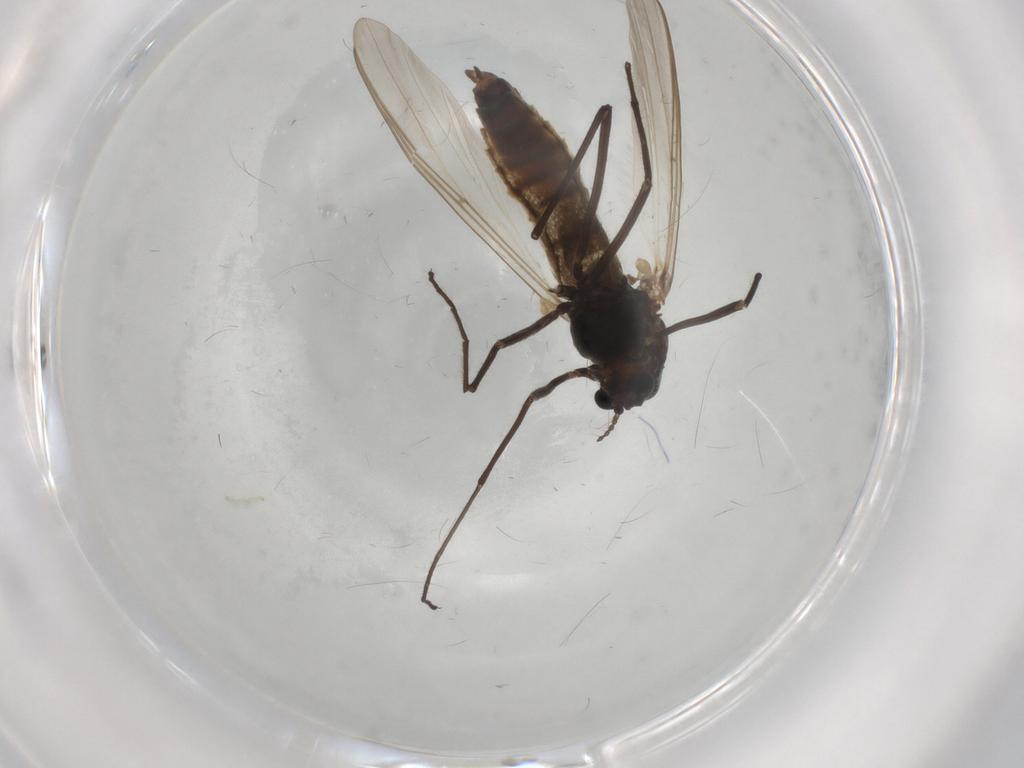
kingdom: Animalia
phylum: Arthropoda
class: Insecta
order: Diptera
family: Chironomidae
